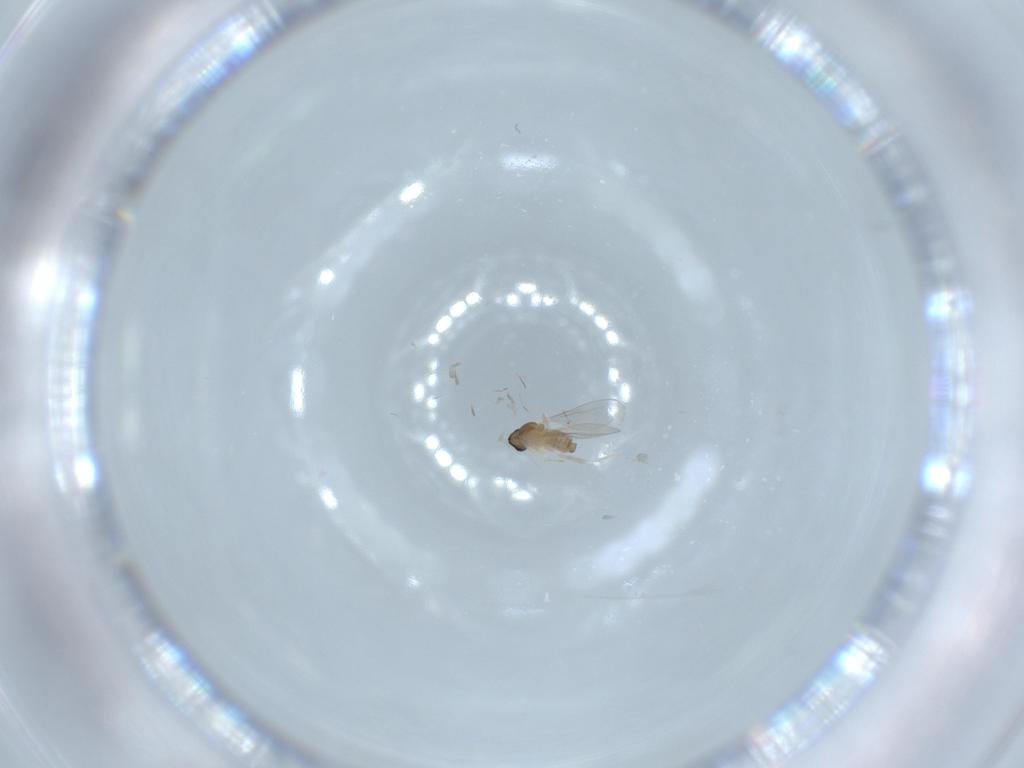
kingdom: Animalia
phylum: Arthropoda
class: Insecta
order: Diptera
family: Cecidomyiidae
